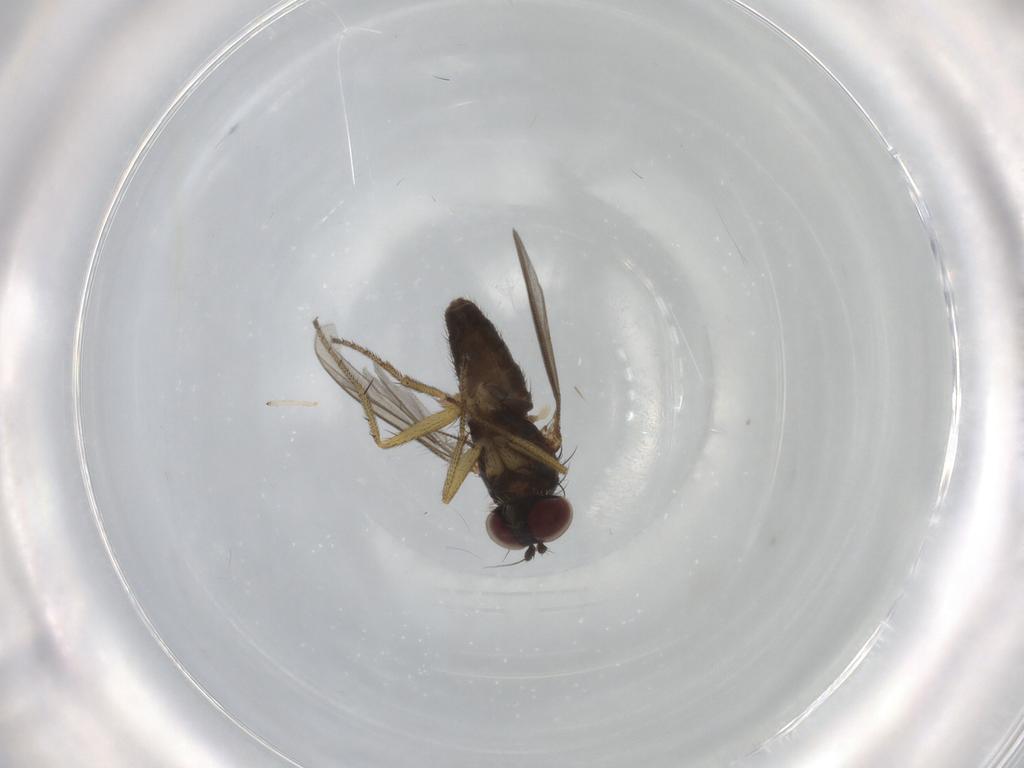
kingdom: Animalia
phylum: Arthropoda
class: Insecta
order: Diptera
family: Dolichopodidae
